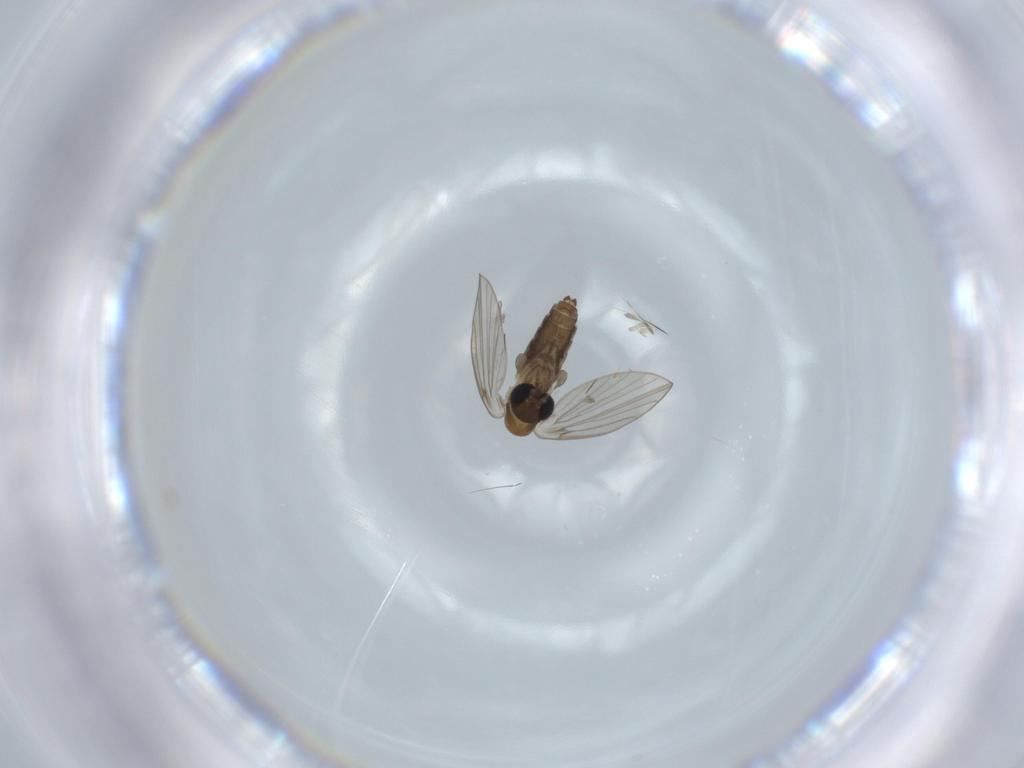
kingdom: Animalia
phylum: Arthropoda
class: Insecta
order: Diptera
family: Psychodidae
